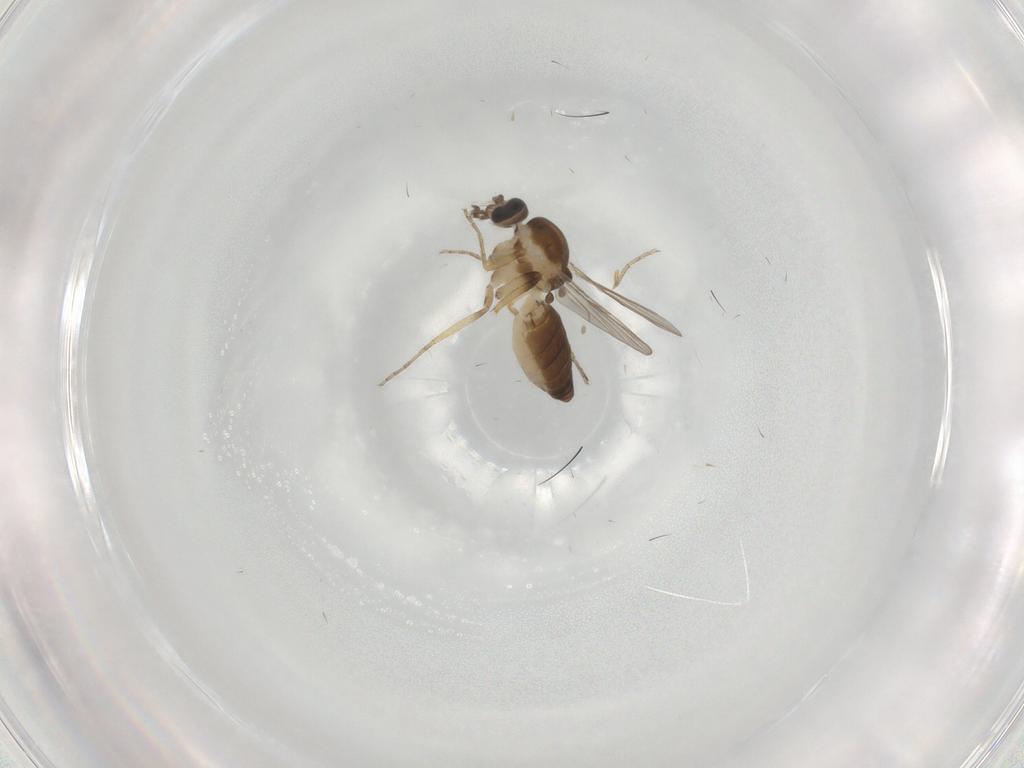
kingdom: Animalia
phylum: Arthropoda
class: Insecta
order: Diptera
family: Ceratopogonidae
